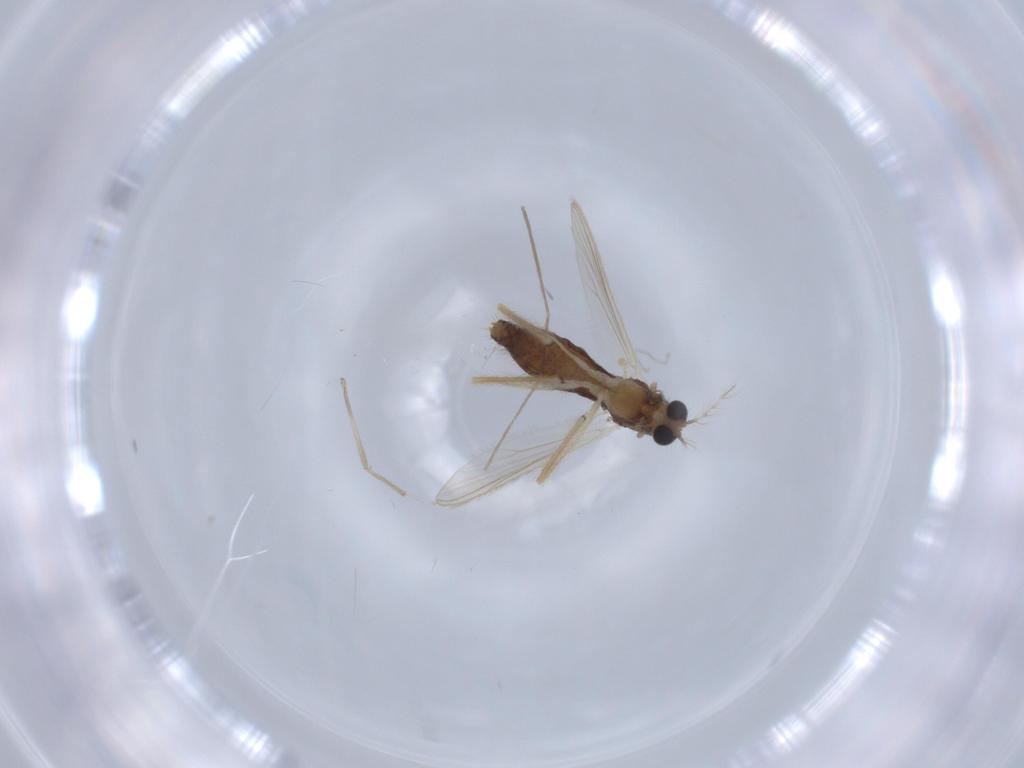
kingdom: Animalia
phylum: Arthropoda
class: Insecta
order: Diptera
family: Chironomidae
